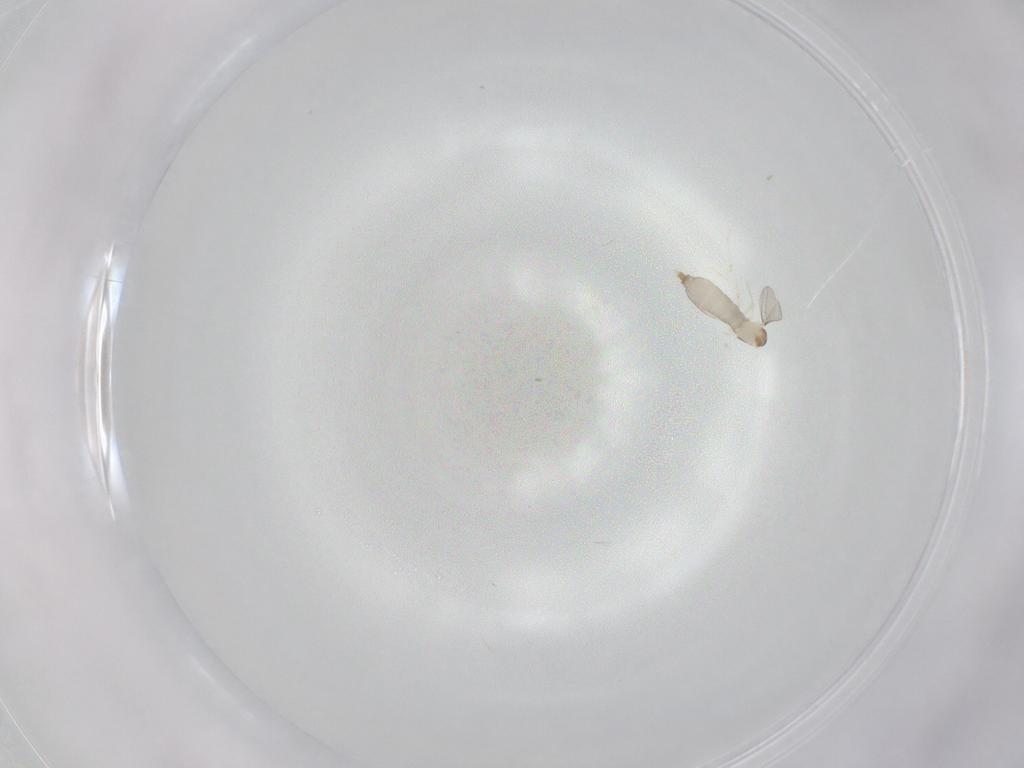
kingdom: Animalia
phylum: Arthropoda
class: Insecta
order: Diptera
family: Cecidomyiidae
